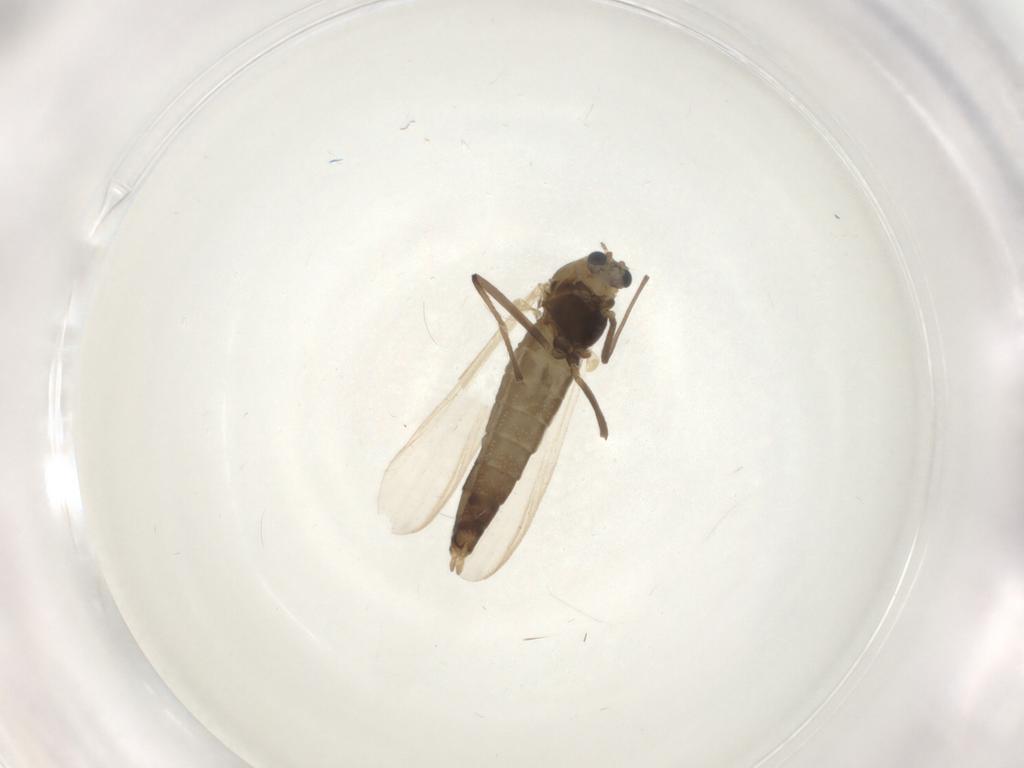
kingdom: Animalia
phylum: Arthropoda
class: Insecta
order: Diptera
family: Chironomidae
